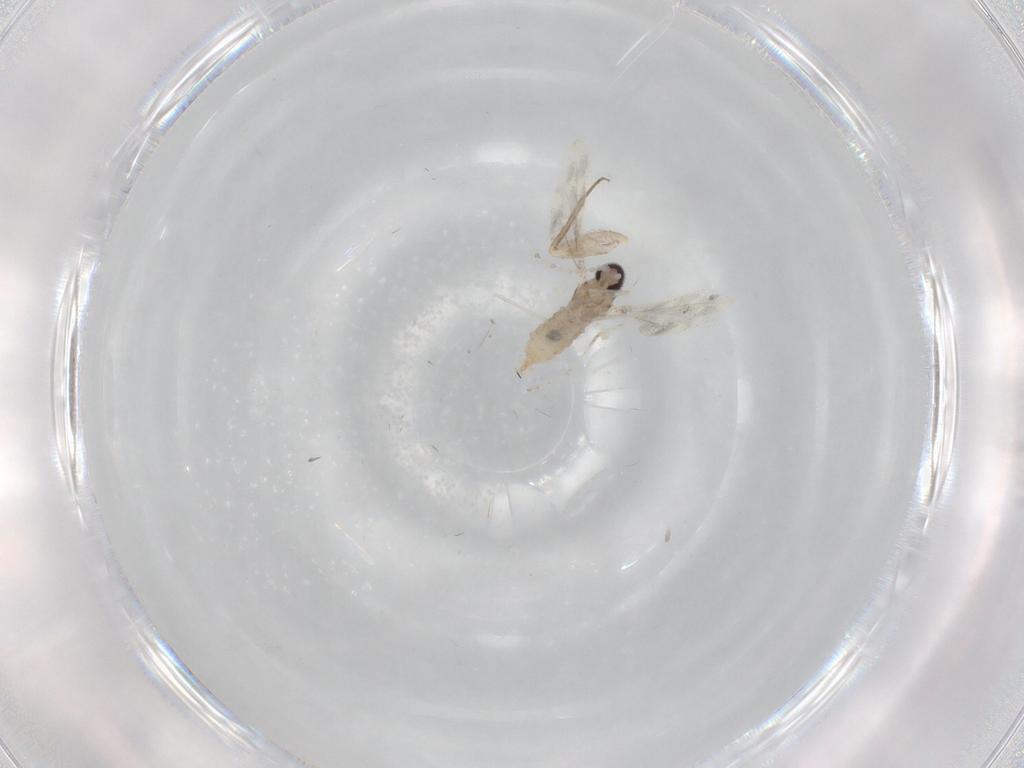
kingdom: Animalia
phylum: Arthropoda
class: Insecta
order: Diptera
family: Cecidomyiidae
